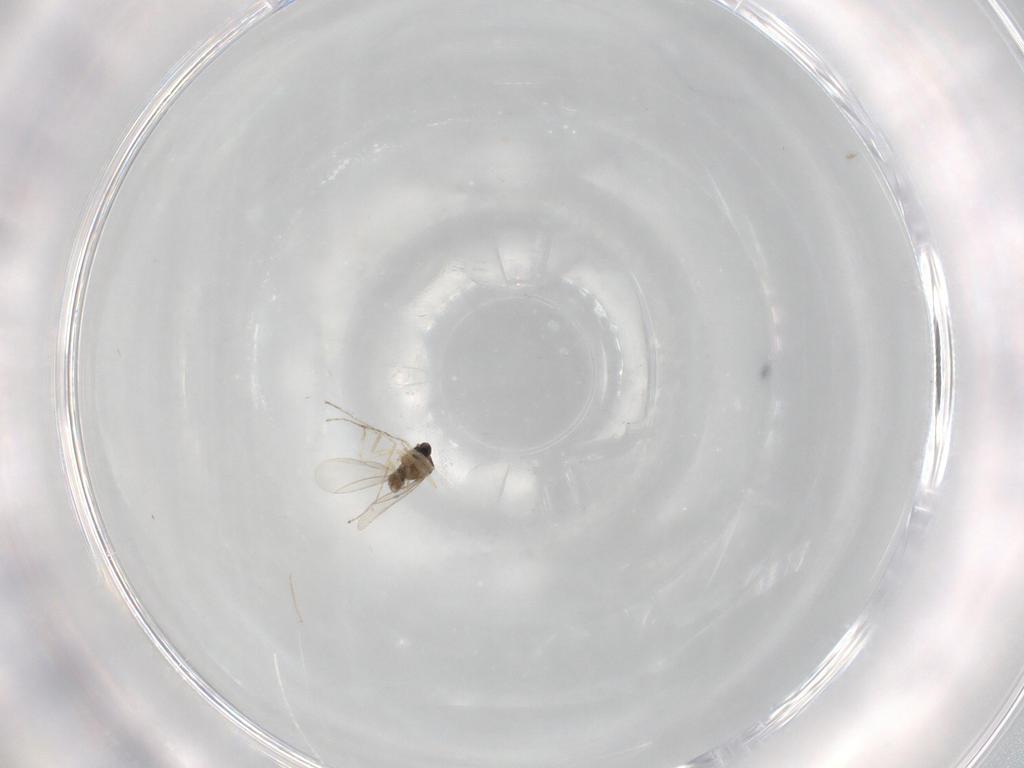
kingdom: Animalia
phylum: Arthropoda
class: Insecta
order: Diptera
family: Cecidomyiidae
